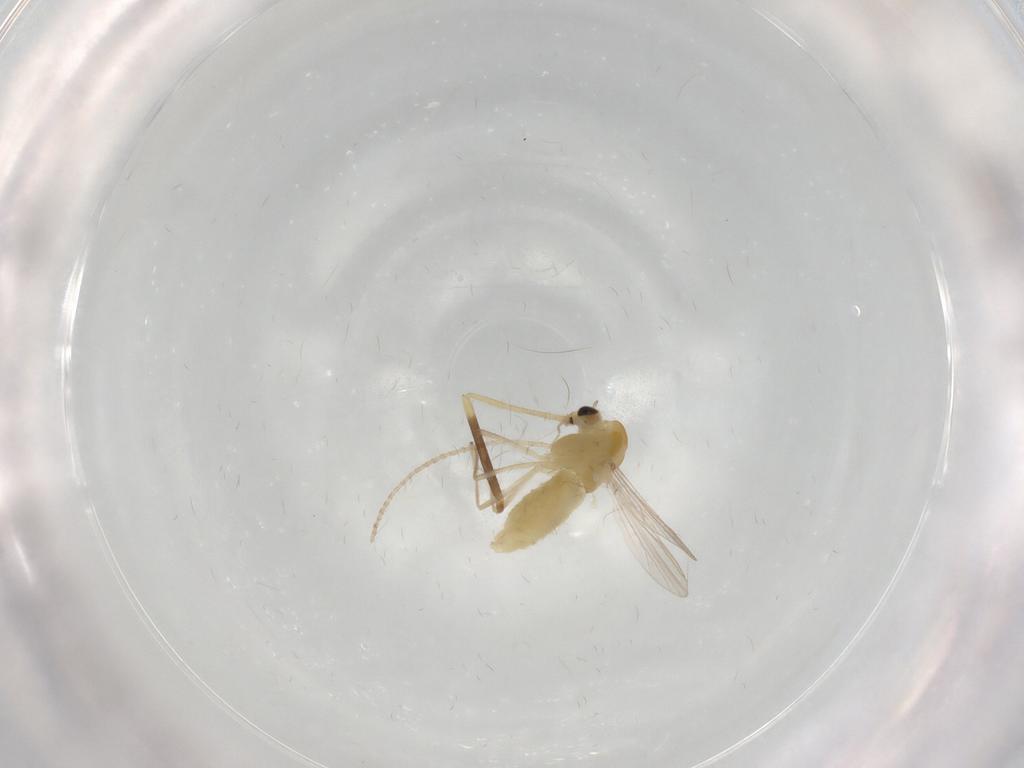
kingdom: Animalia
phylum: Arthropoda
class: Insecta
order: Diptera
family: Chironomidae
